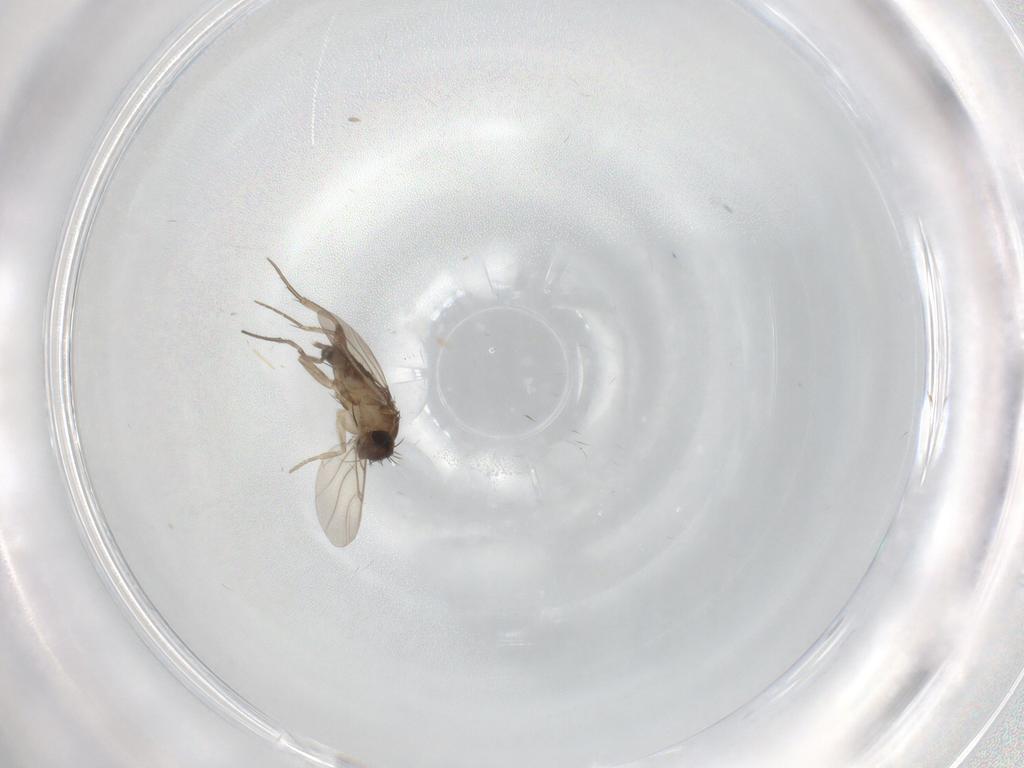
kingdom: Animalia
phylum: Arthropoda
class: Insecta
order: Diptera
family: Phoridae
